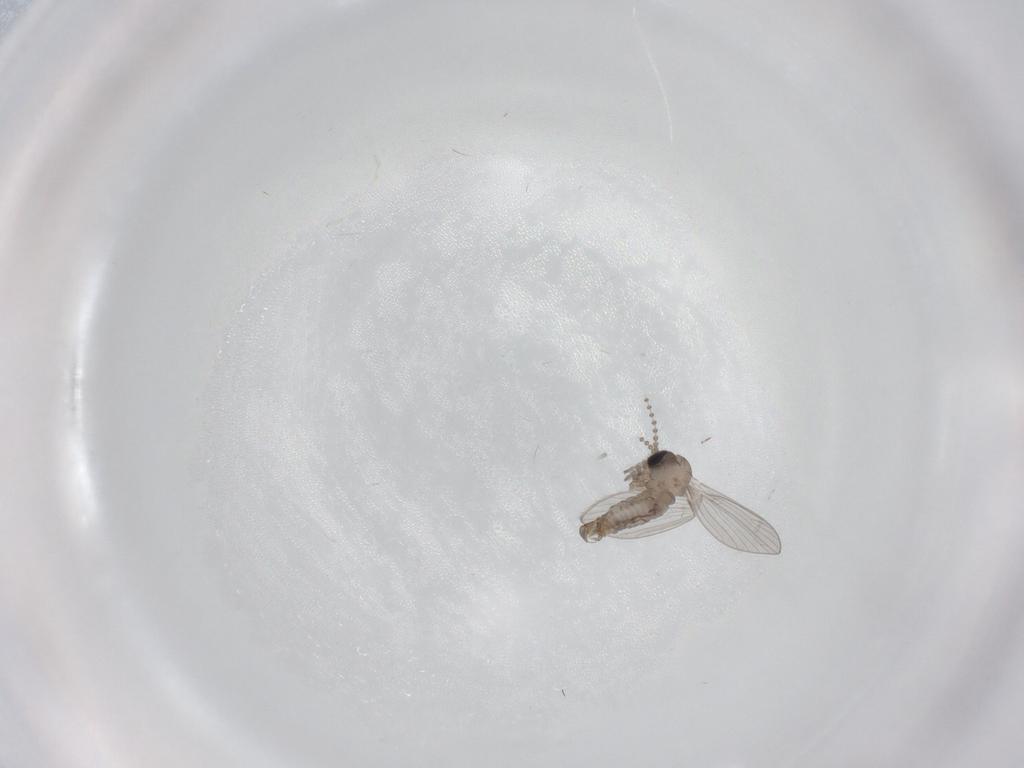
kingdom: Animalia
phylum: Arthropoda
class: Insecta
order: Diptera
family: Psychodidae
